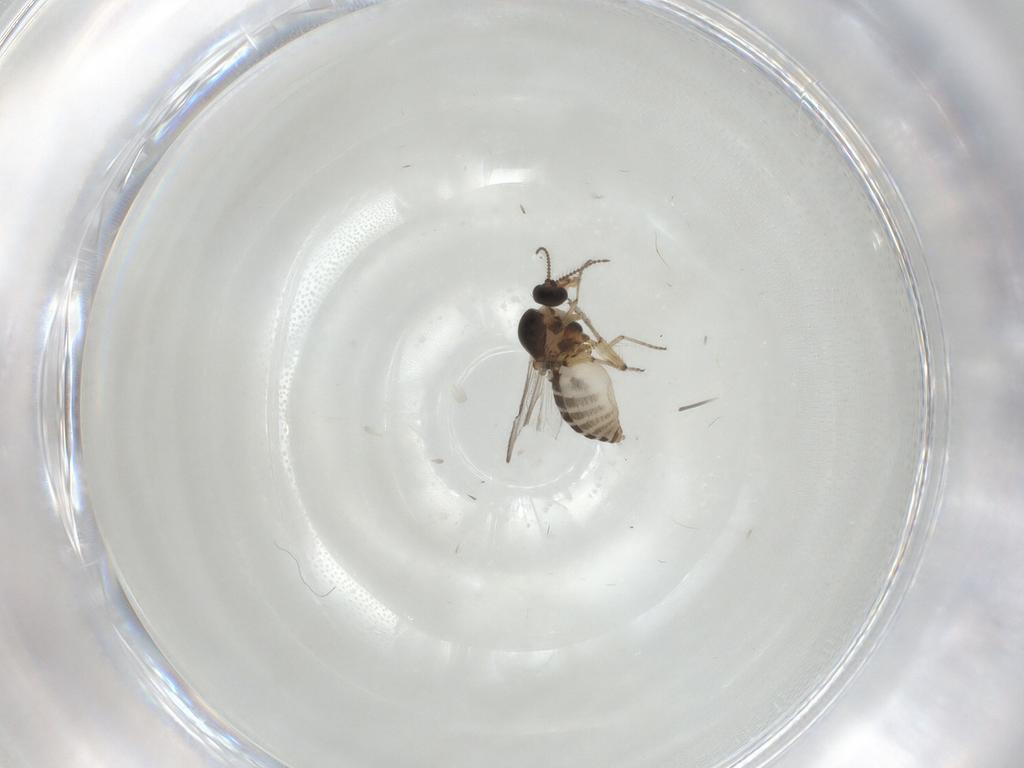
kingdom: Animalia
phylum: Arthropoda
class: Insecta
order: Diptera
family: Ceratopogonidae
